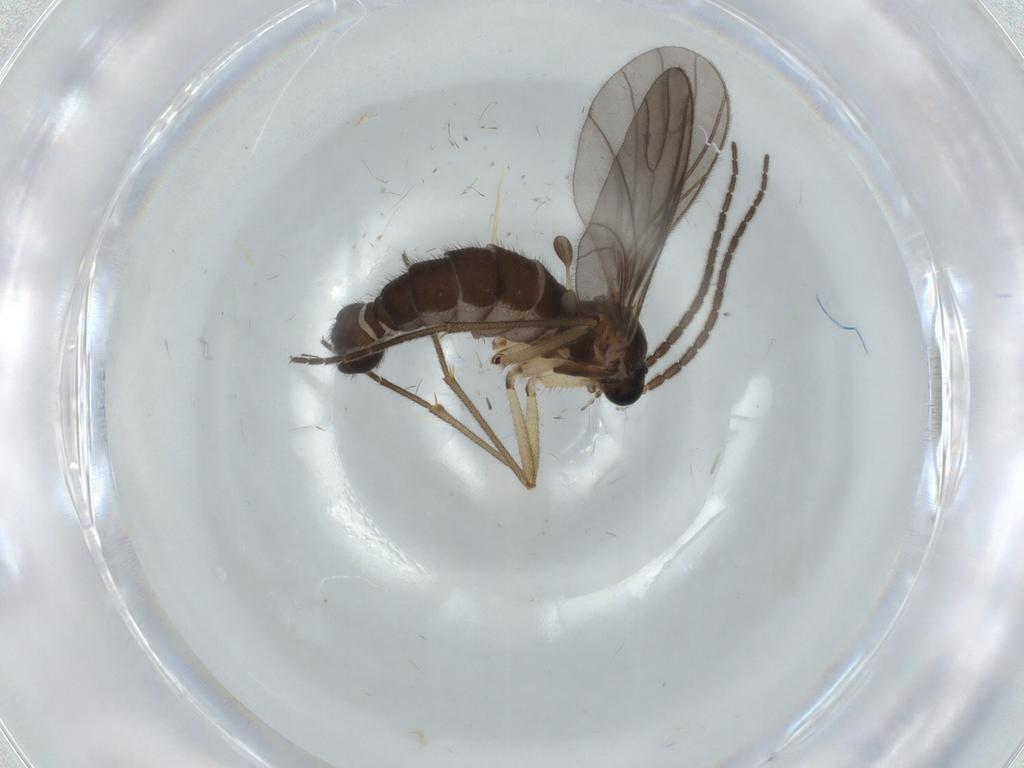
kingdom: Animalia
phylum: Arthropoda
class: Insecta
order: Diptera
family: Sciaridae
